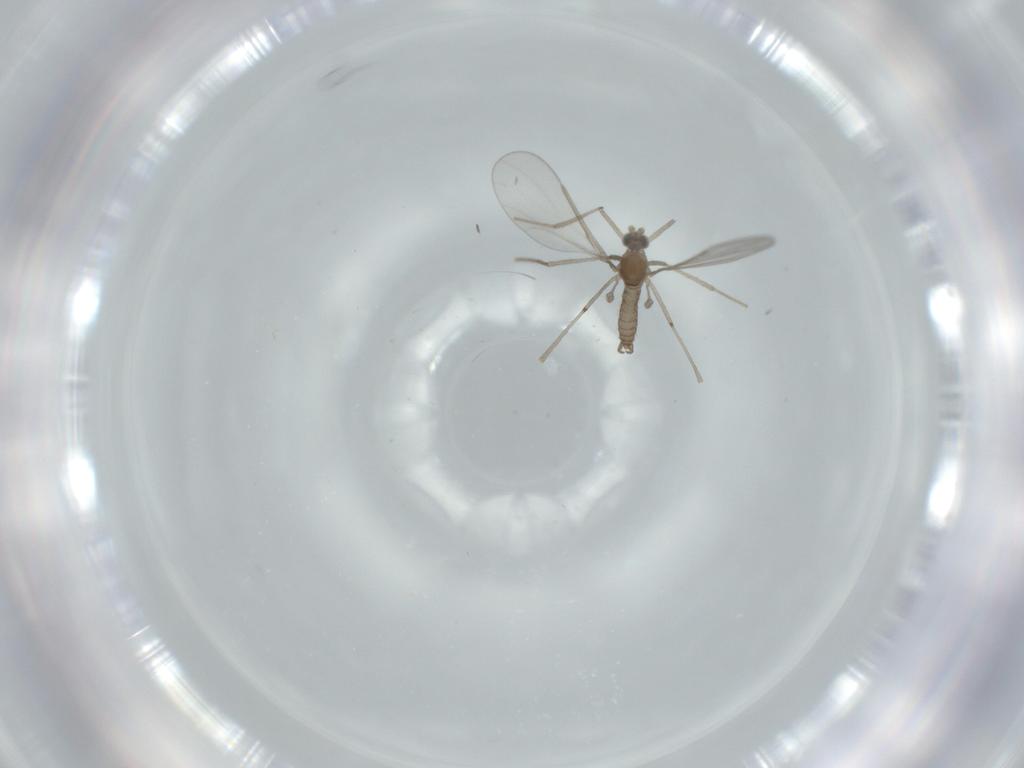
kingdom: Animalia
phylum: Arthropoda
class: Insecta
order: Diptera
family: Cecidomyiidae
